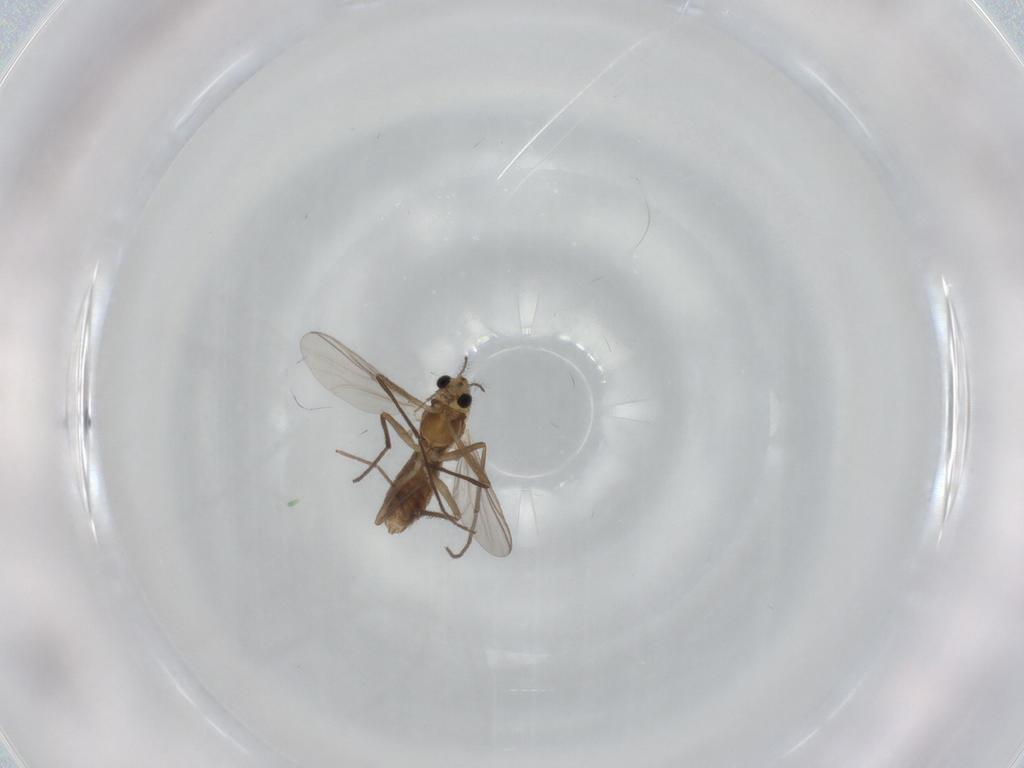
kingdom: Animalia
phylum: Arthropoda
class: Insecta
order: Diptera
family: Chironomidae
